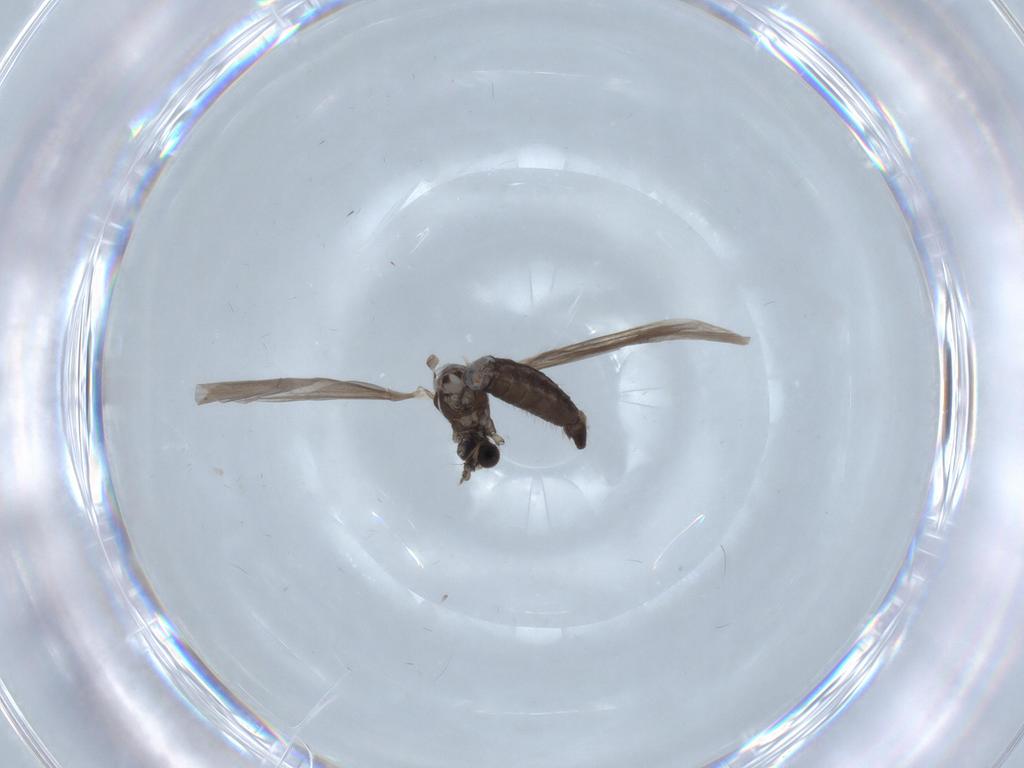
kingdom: Animalia
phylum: Arthropoda
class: Insecta
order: Diptera
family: Limoniidae
